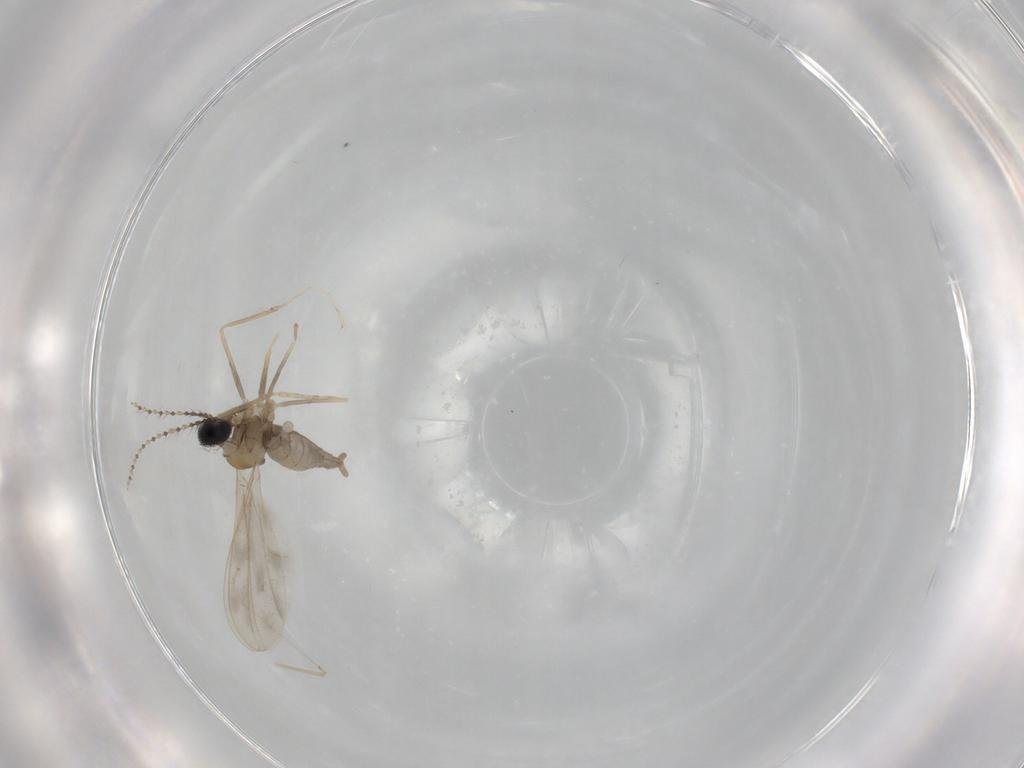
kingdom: Animalia
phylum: Arthropoda
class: Insecta
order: Diptera
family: Cecidomyiidae
